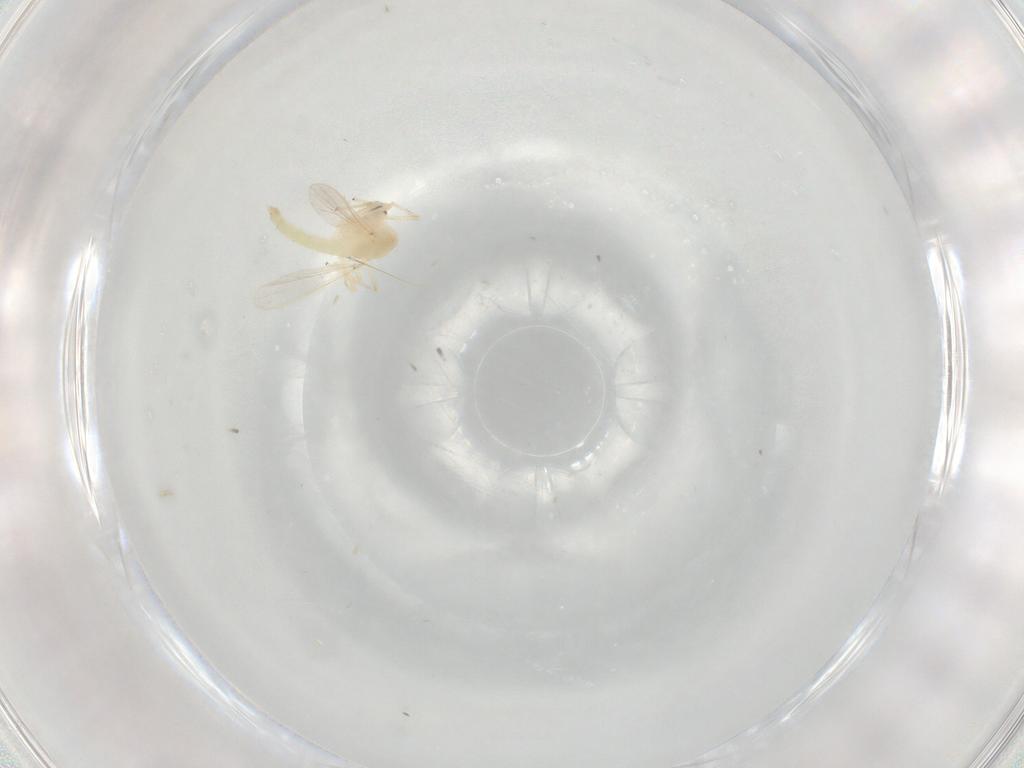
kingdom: Animalia
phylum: Arthropoda
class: Insecta
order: Diptera
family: Chironomidae
